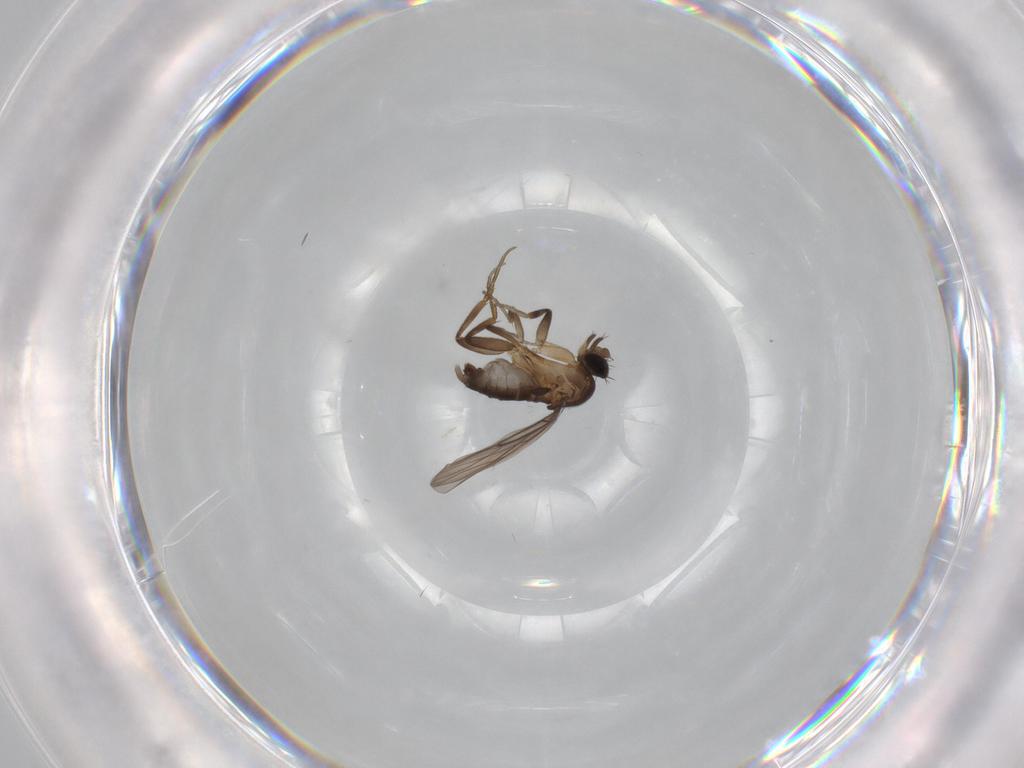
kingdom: Animalia
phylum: Arthropoda
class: Insecta
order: Diptera
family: Phoridae
